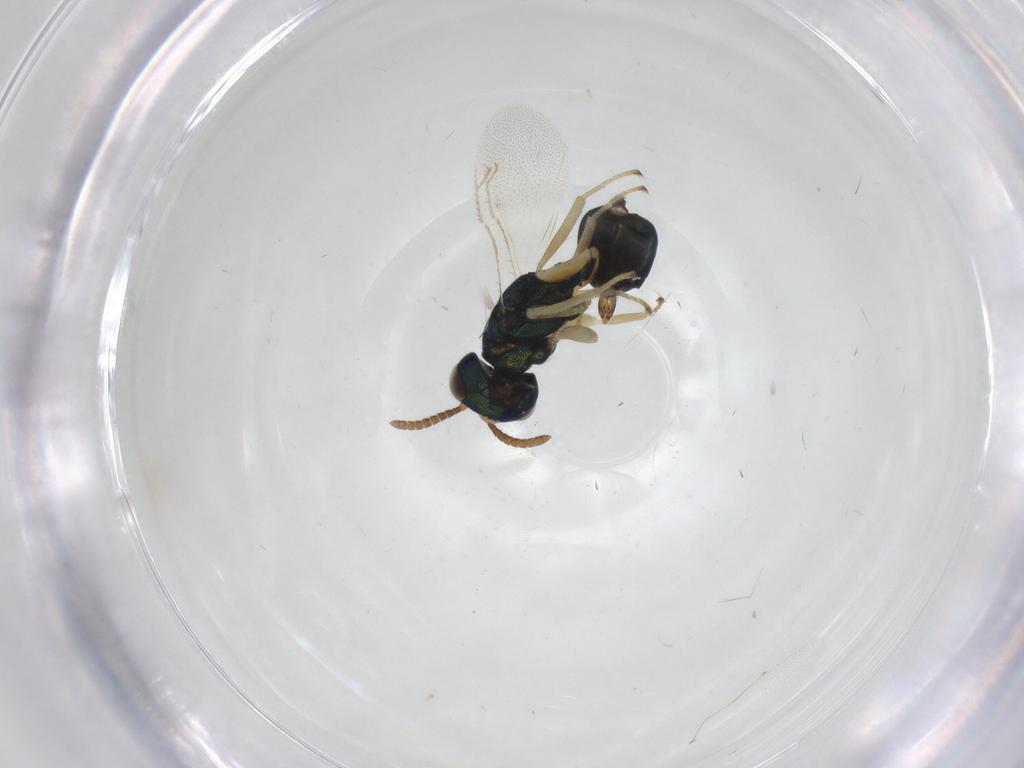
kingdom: Animalia
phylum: Arthropoda
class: Insecta
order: Hymenoptera
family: Pteromalidae
